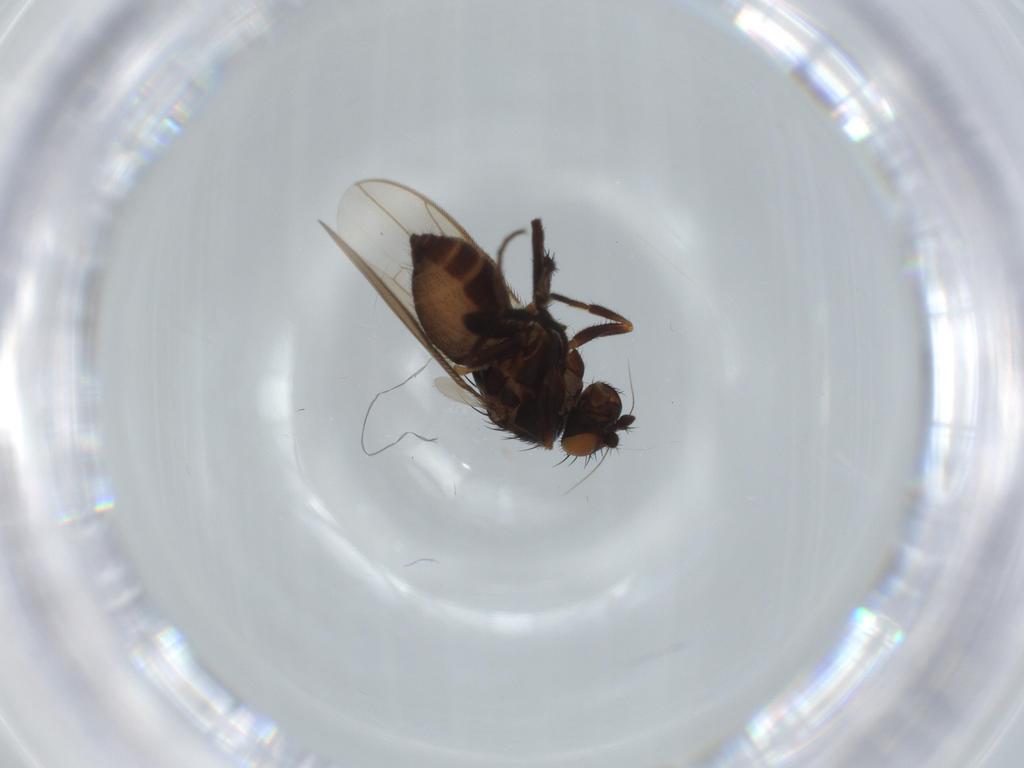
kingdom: Animalia
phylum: Arthropoda
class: Insecta
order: Diptera
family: Sphaeroceridae
